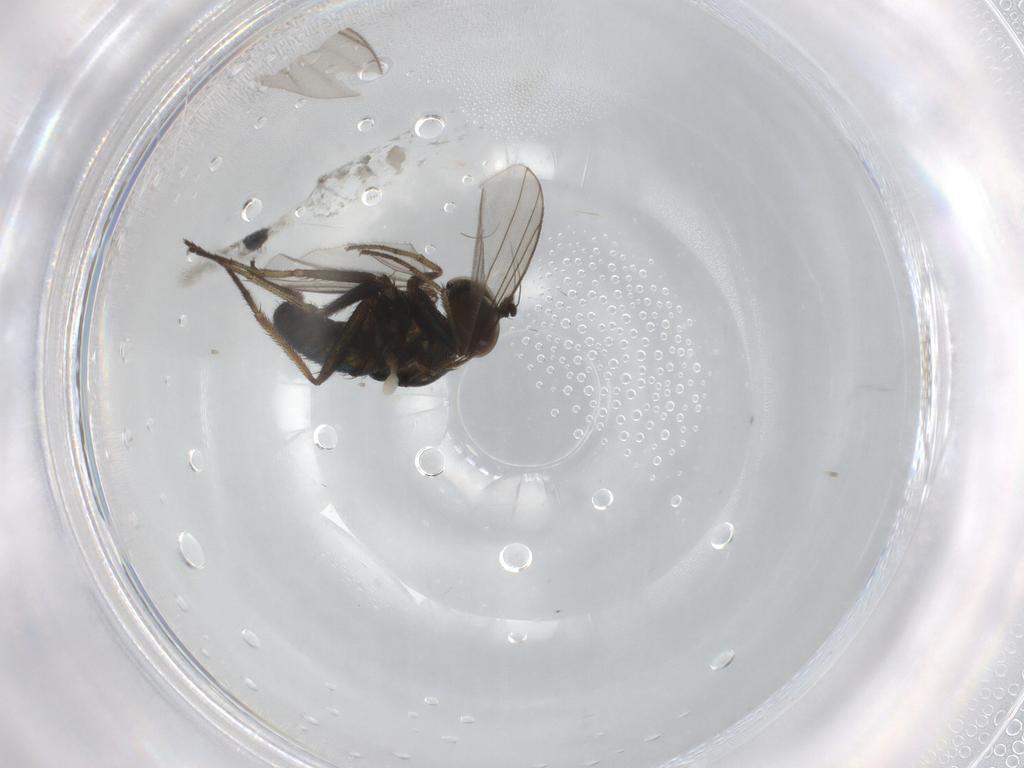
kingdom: Animalia
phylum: Arthropoda
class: Insecta
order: Diptera
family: Dolichopodidae
